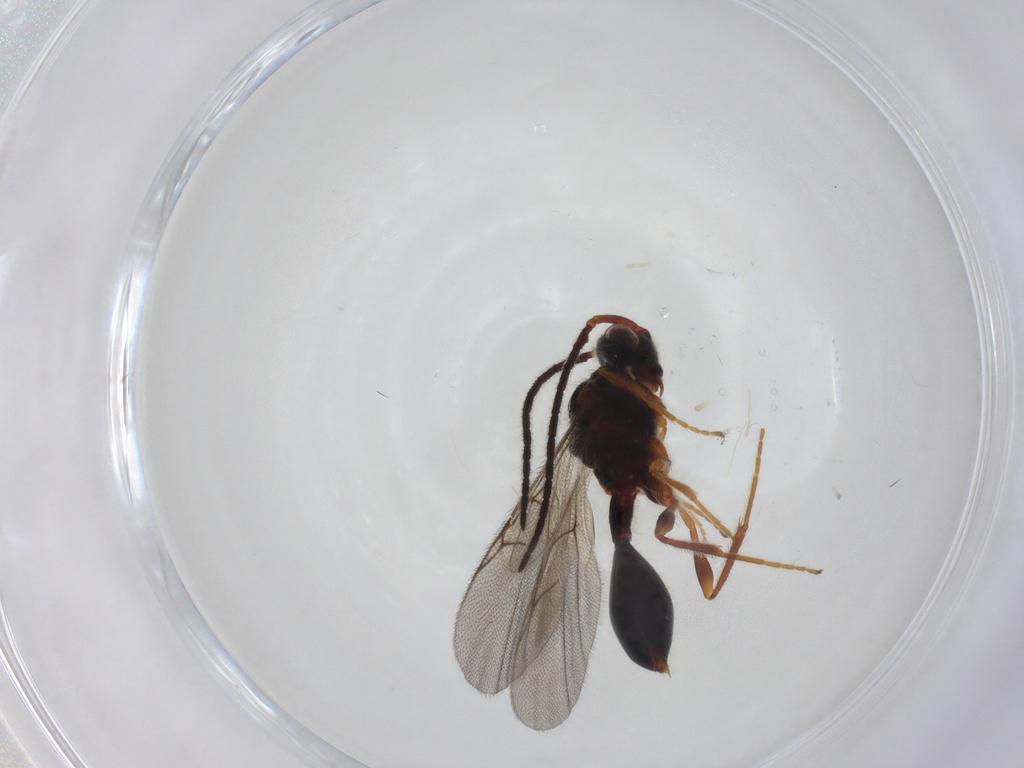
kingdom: Animalia
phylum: Arthropoda
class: Insecta
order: Hymenoptera
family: Diapriidae
